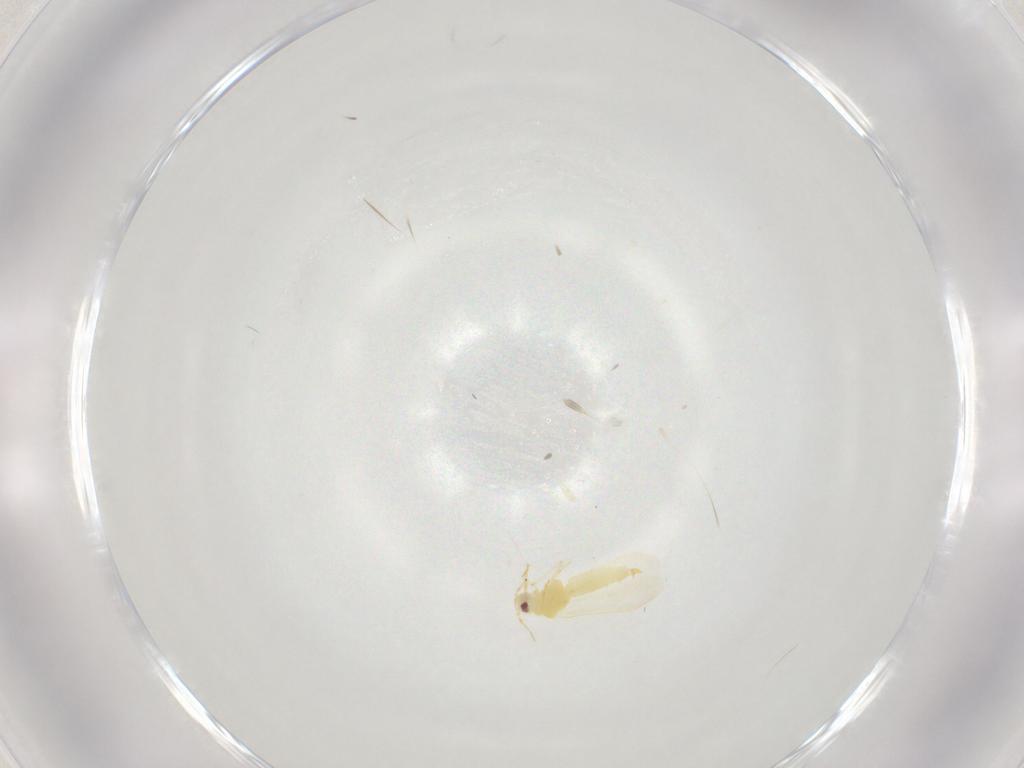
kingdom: Animalia
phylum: Arthropoda
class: Insecta
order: Hemiptera
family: Aleyrodidae
